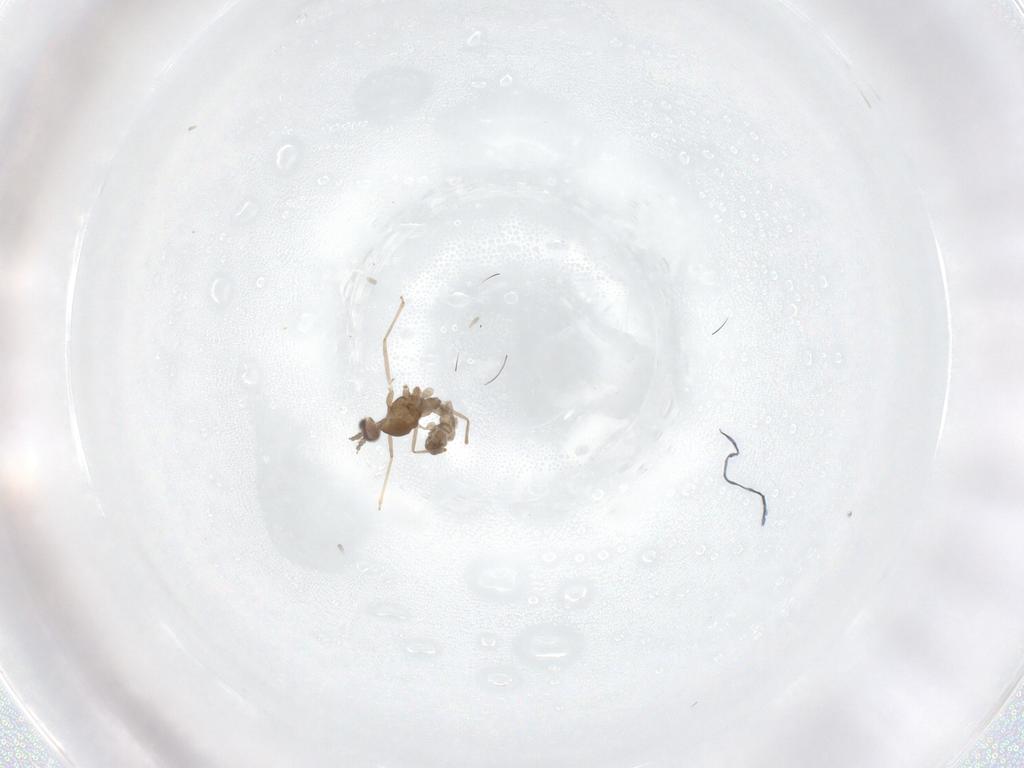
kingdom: Animalia
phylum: Arthropoda
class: Insecta
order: Diptera
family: Cecidomyiidae
